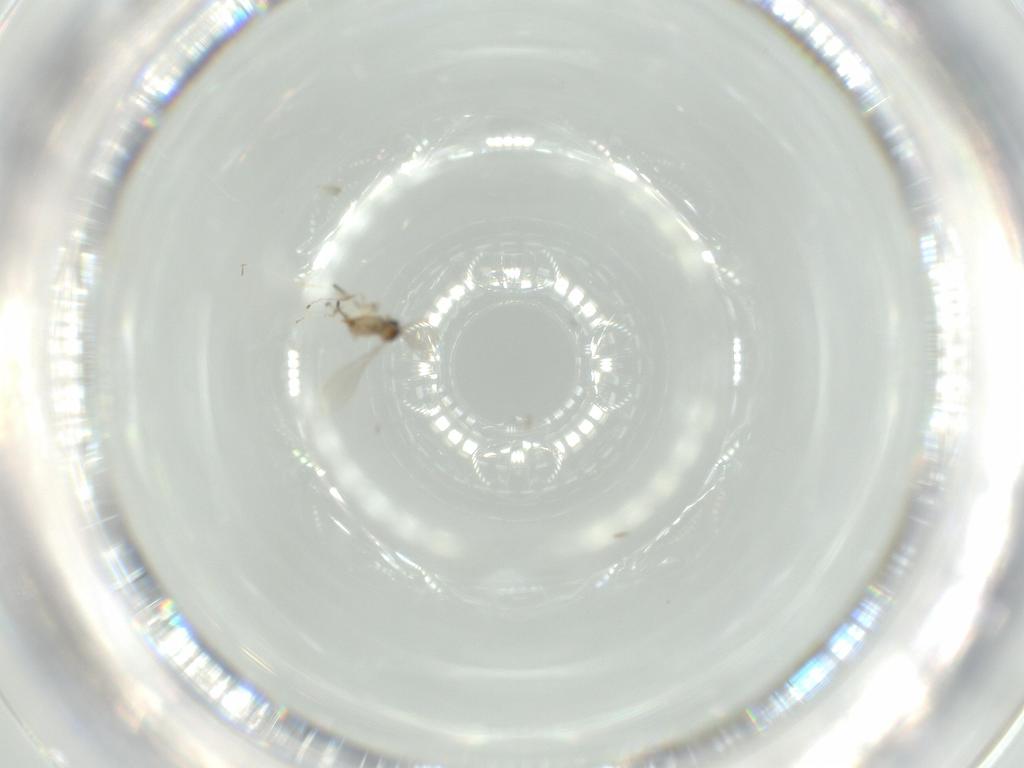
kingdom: Animalia
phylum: Arthropoda
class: Insecta
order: Diptera
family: Chironomidae
